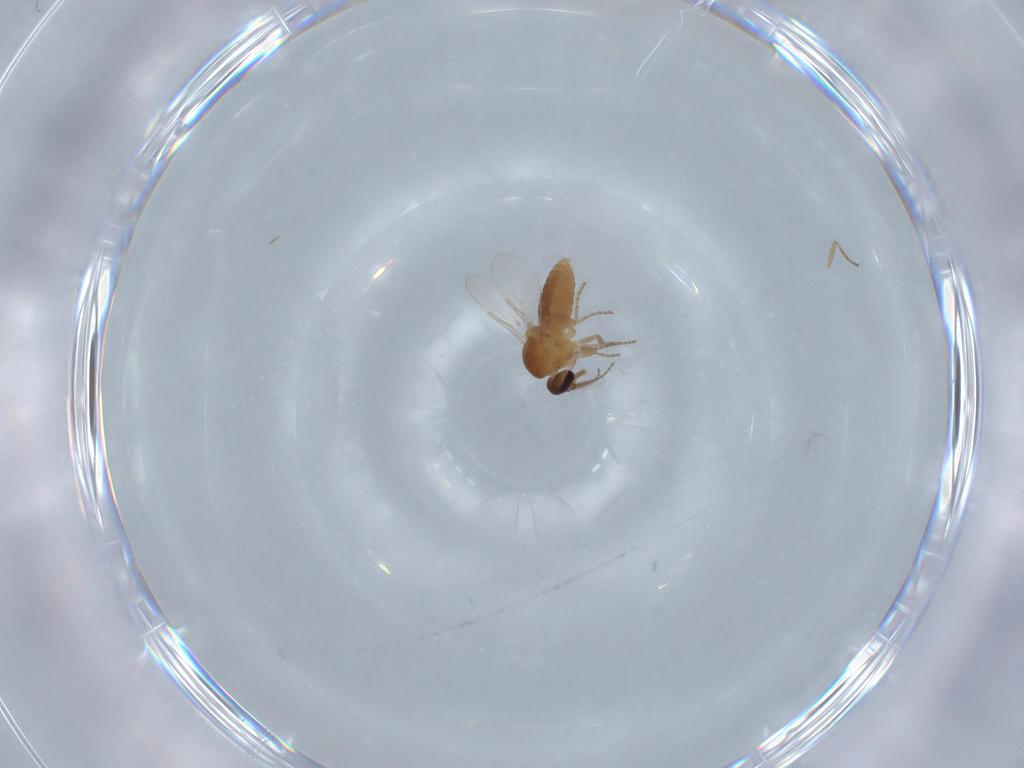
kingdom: Animalia
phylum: Arthropoda
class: Insecta
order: Diptera
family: Ceratopogonidae
